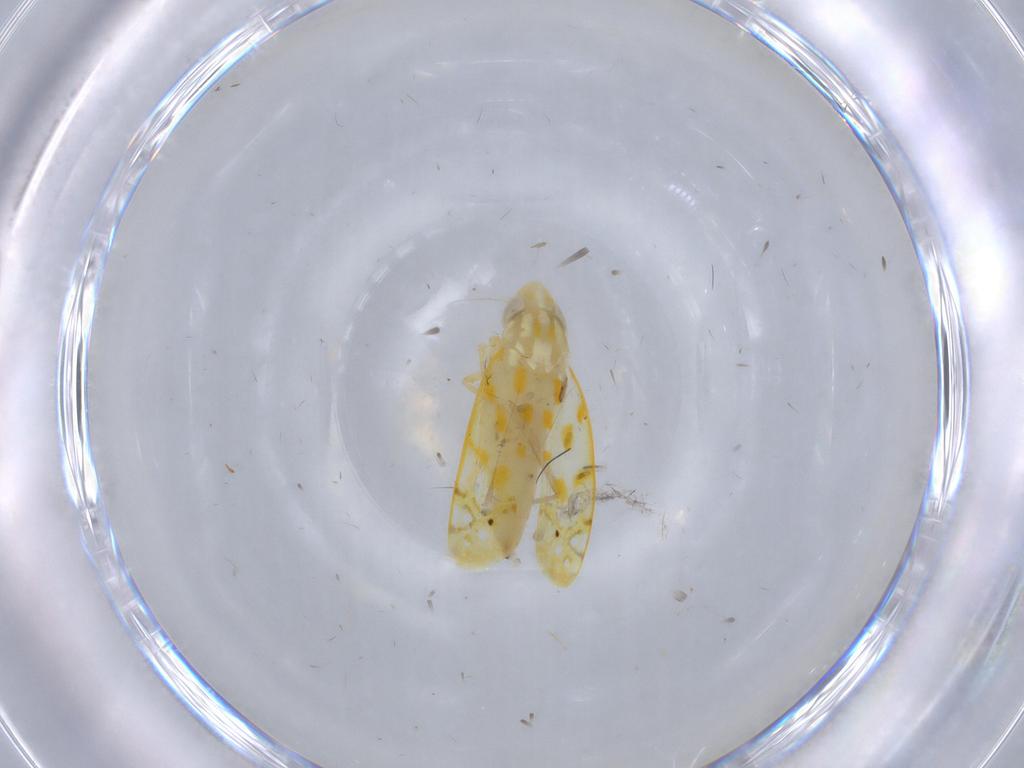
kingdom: Animalia
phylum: Arthropoda
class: Insecta
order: Hemiptera
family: Cicadellidae
